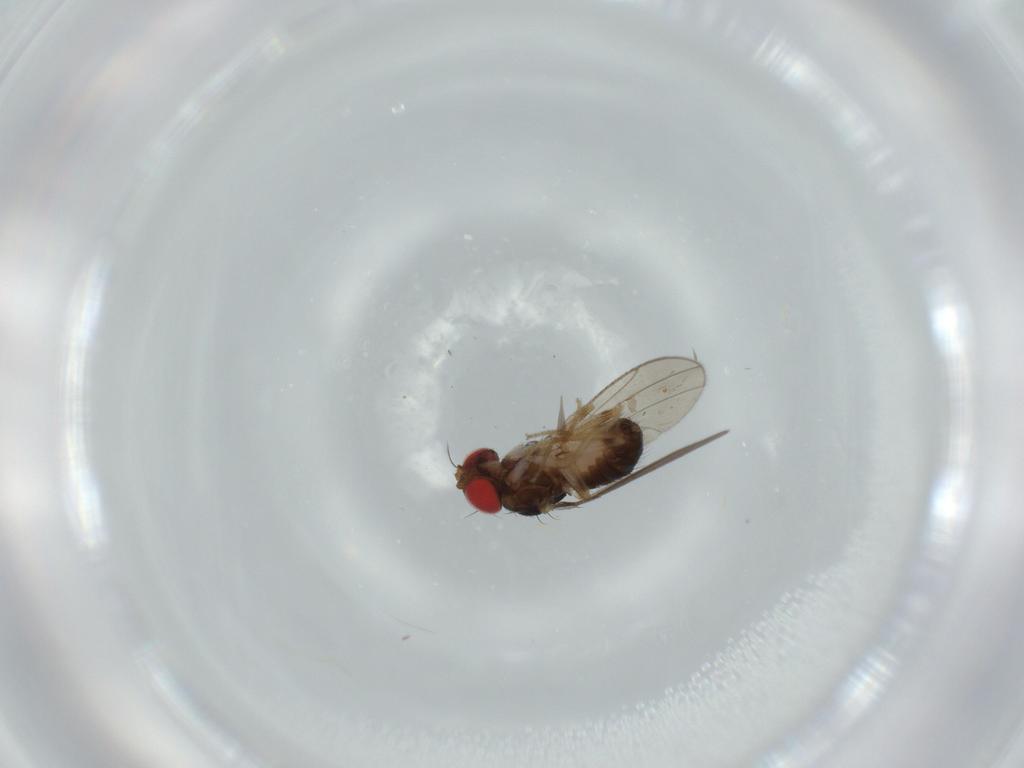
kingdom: Animalia
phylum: Arthropoda
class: Insecta
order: Diptera
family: Drosophilidae
